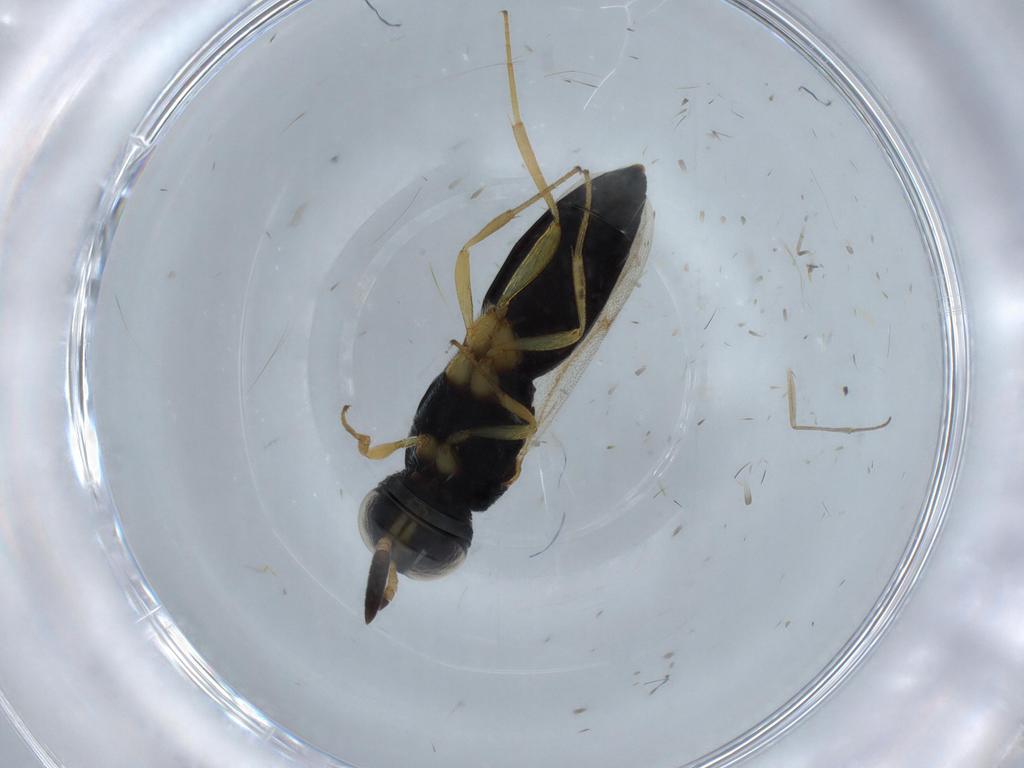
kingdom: Animalia
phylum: Arthropoda
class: Insecta
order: Hymenoptera
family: Scelionidae
